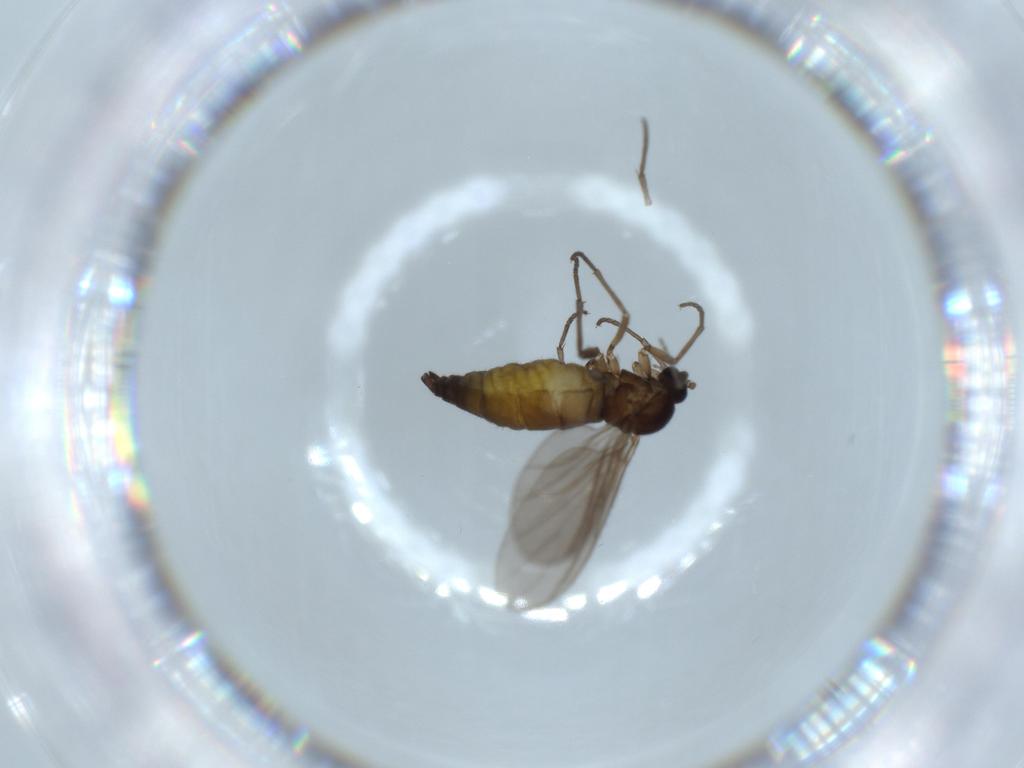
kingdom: Animalia
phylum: Arthropoda
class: Insecta
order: Diptera
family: Sciaridae
